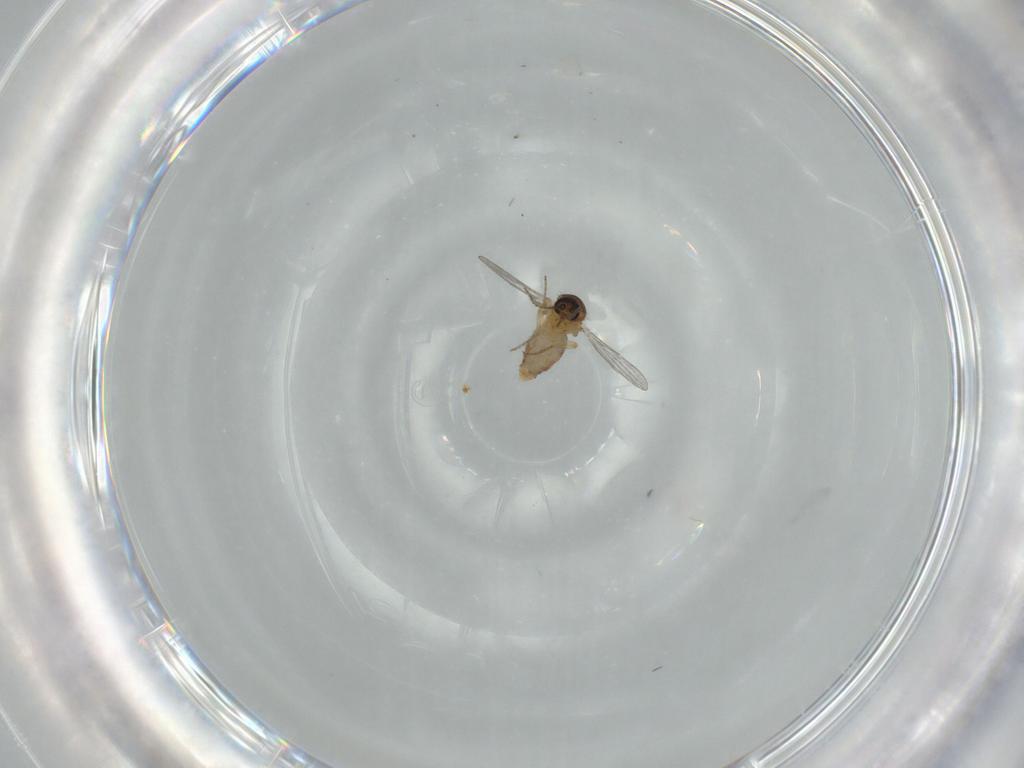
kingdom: Animalia
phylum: Arthropoda
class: Insecta
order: Diptera
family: Ceratopogonidae
